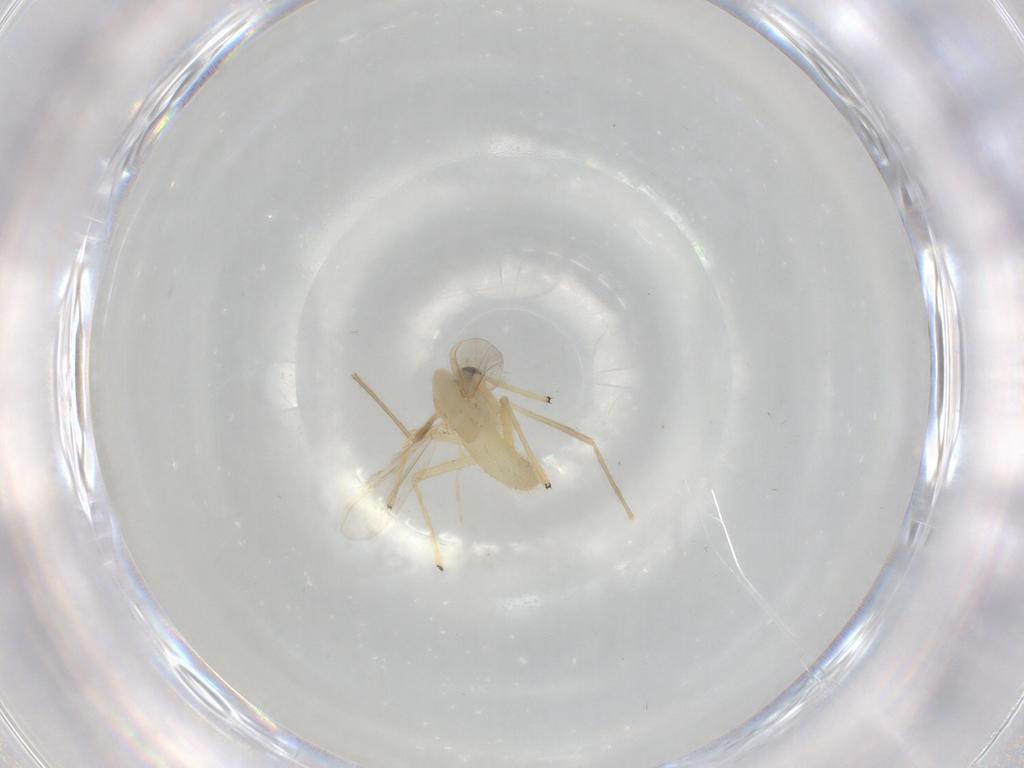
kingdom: Animalia
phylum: Arthropoda
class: Insecta
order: Diptera
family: Chironomidae
